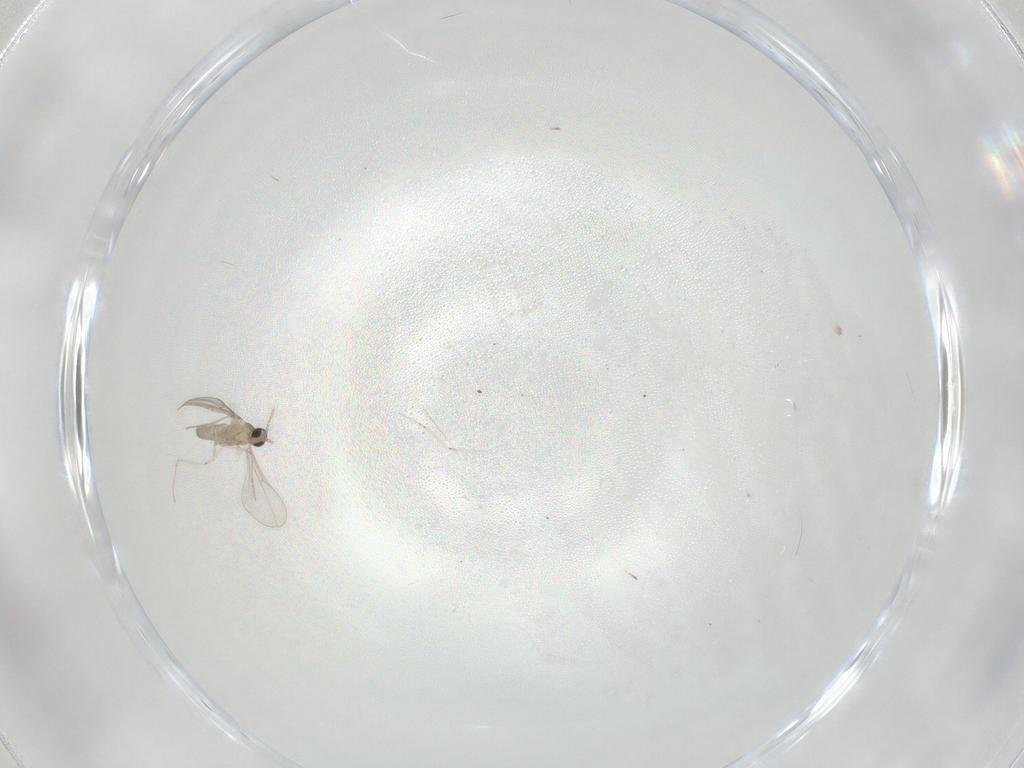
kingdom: Animalia
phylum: Arthropoda
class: Insecta
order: Diptera
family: Cecidomyiidae
